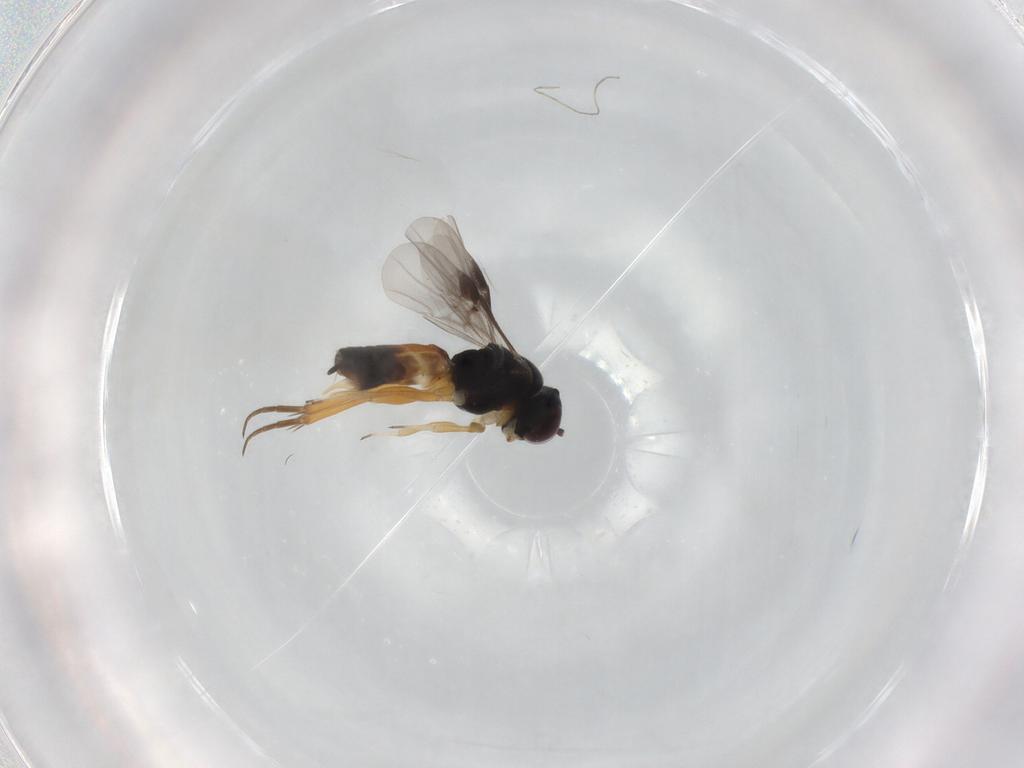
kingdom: Animalia
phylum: Arthropoda
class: Insecta
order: Hymenoptera
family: Braconidae
